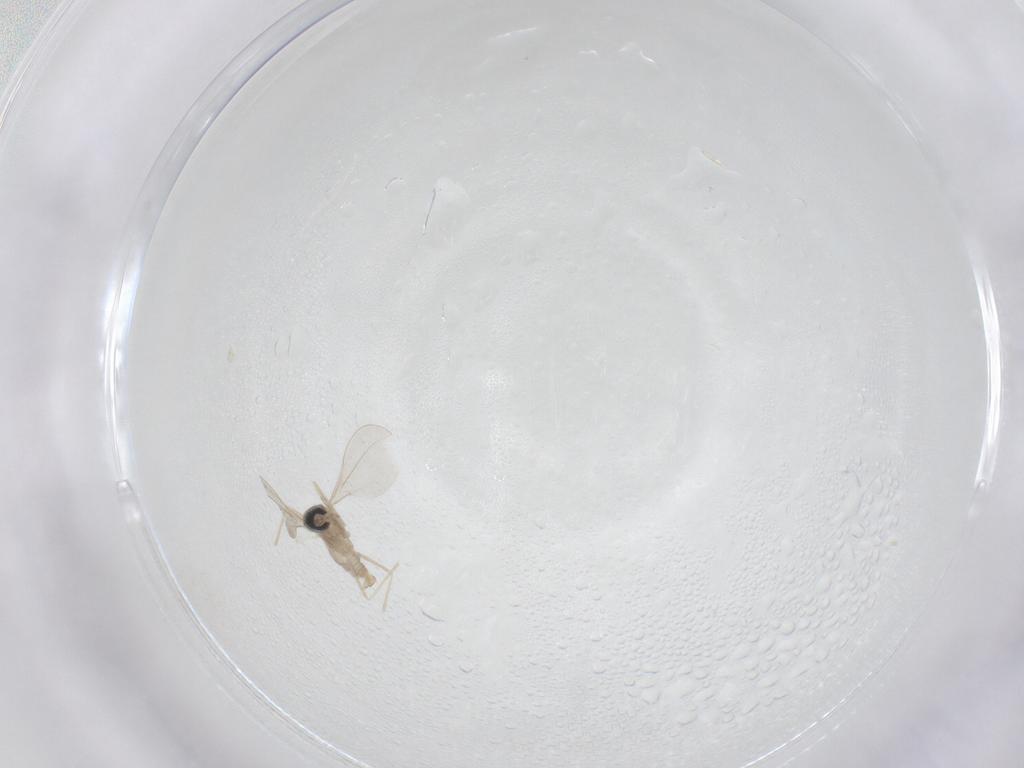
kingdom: Animalia
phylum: Arthropoda
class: Insecta
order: Diptera
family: Cecidomyiidae
